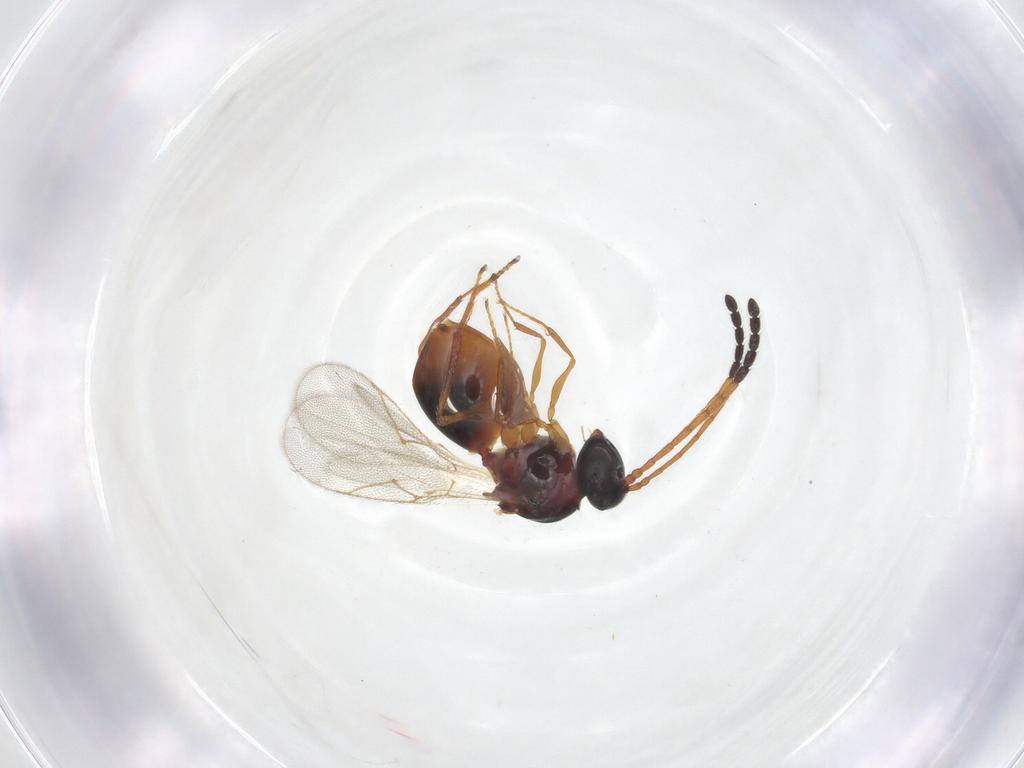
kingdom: Animalia
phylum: Arthropoda
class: Insecta
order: Hymenoptera
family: Figitidae
